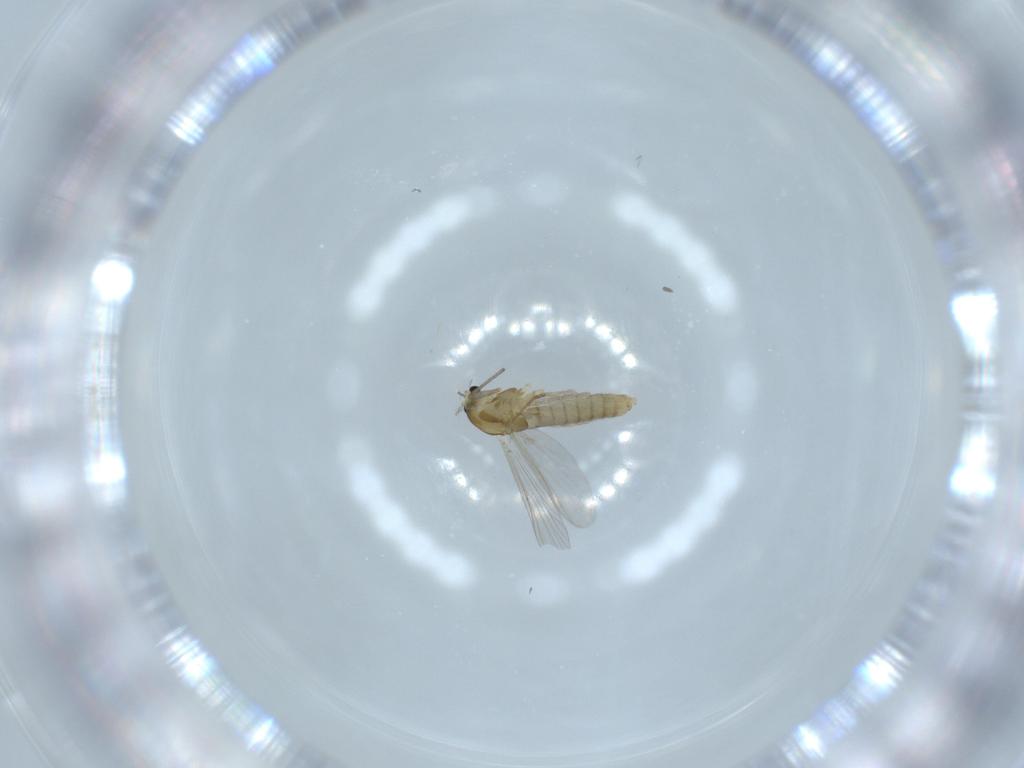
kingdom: Animalia
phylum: Arthropoda
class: Insecta
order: Diptera
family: Chironomidae
